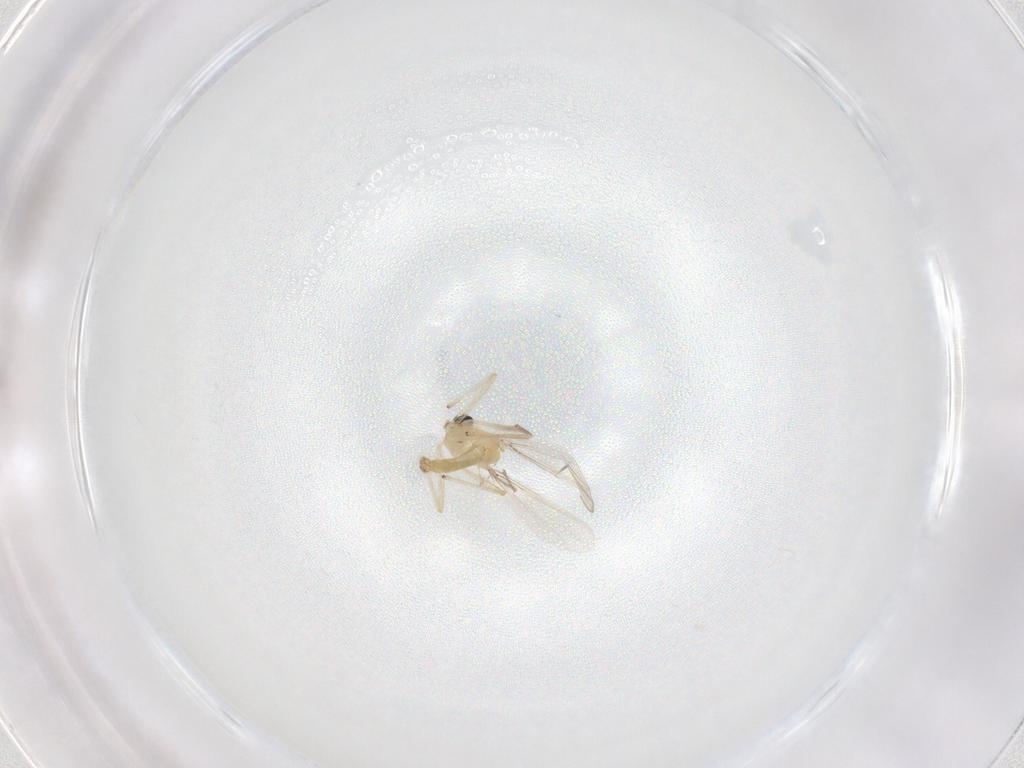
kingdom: Animalia
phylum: Arthropoda
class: Insecta
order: Diptera
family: Chironomidae
